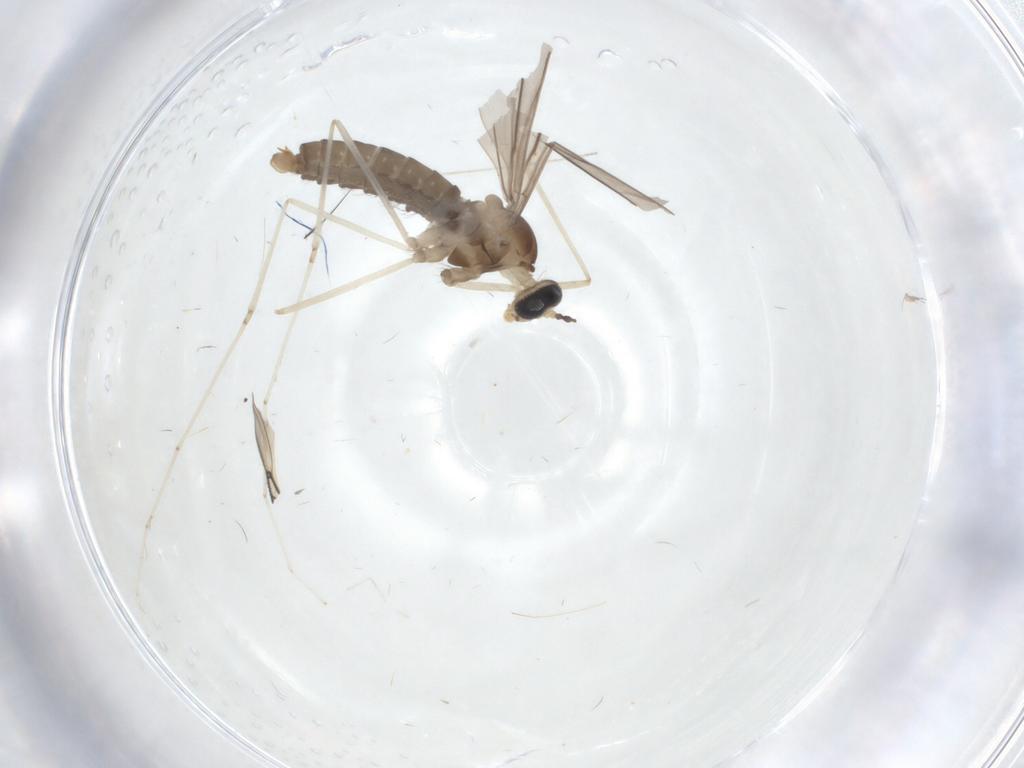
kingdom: Animalia
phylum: Arthropoda
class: Insecta
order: Diptera
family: Cecidomyiidae
